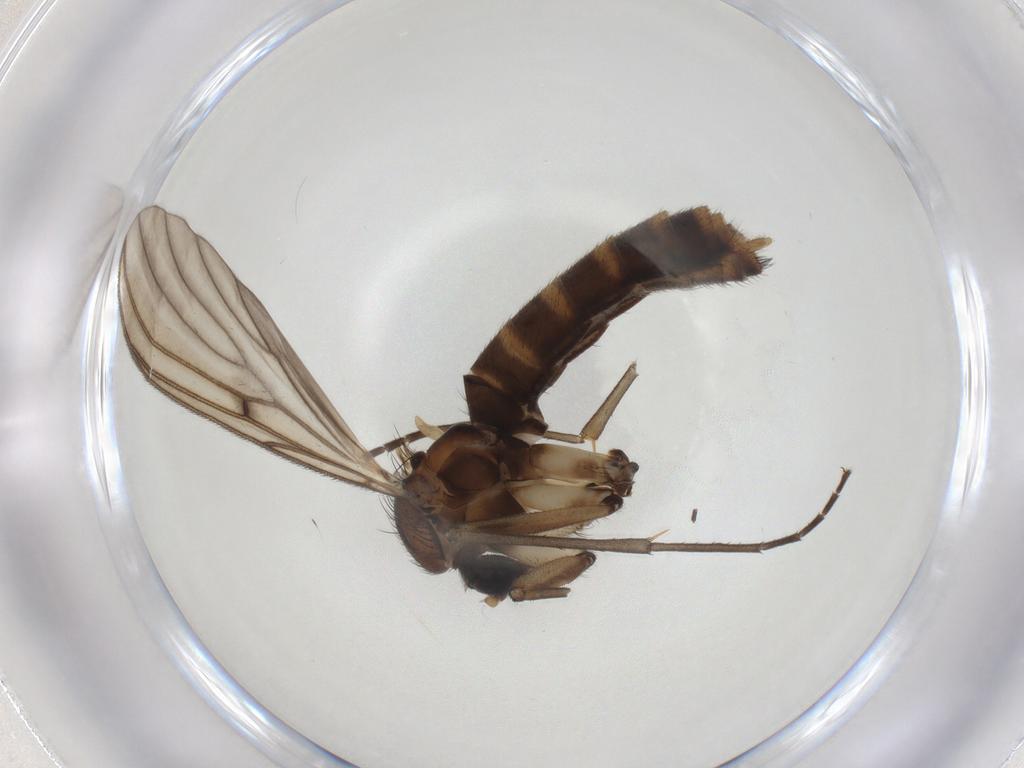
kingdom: Animalia
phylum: Arthropoda
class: Insecta
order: Diptera
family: Mycetophilidae
